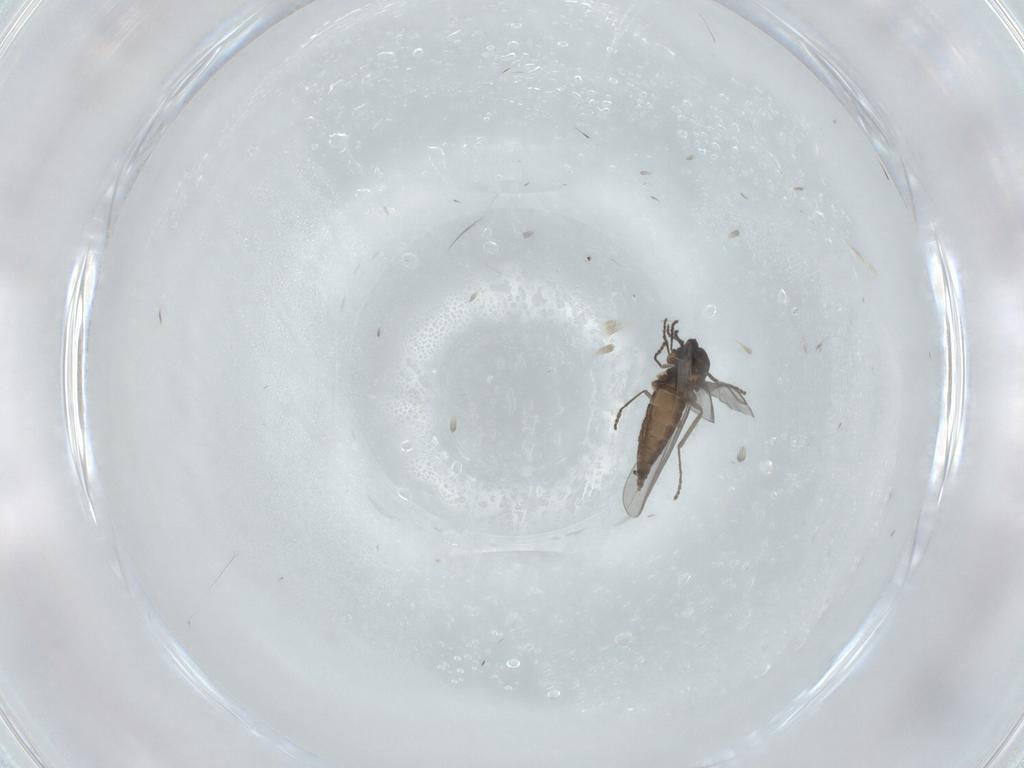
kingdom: Animalia
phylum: Arthropoda
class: Insecta
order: Diptera
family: Cecidomyiidae
